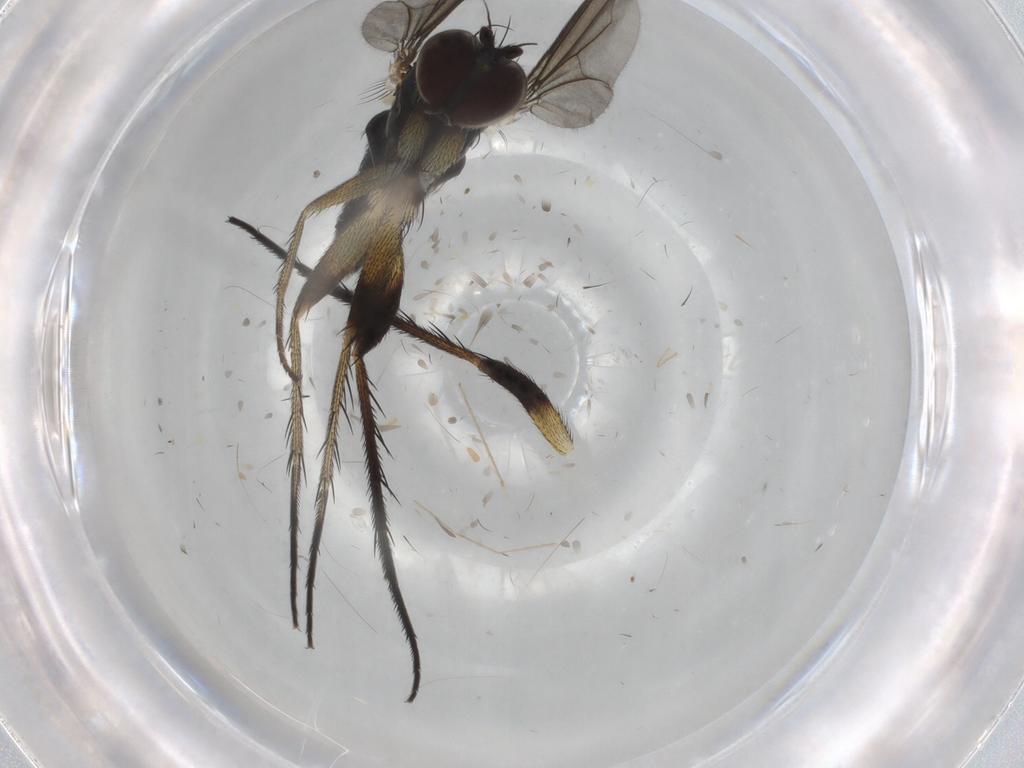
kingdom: Animalia
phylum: Arthropoda
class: Insecta
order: Diptera
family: Dolichopodidae
